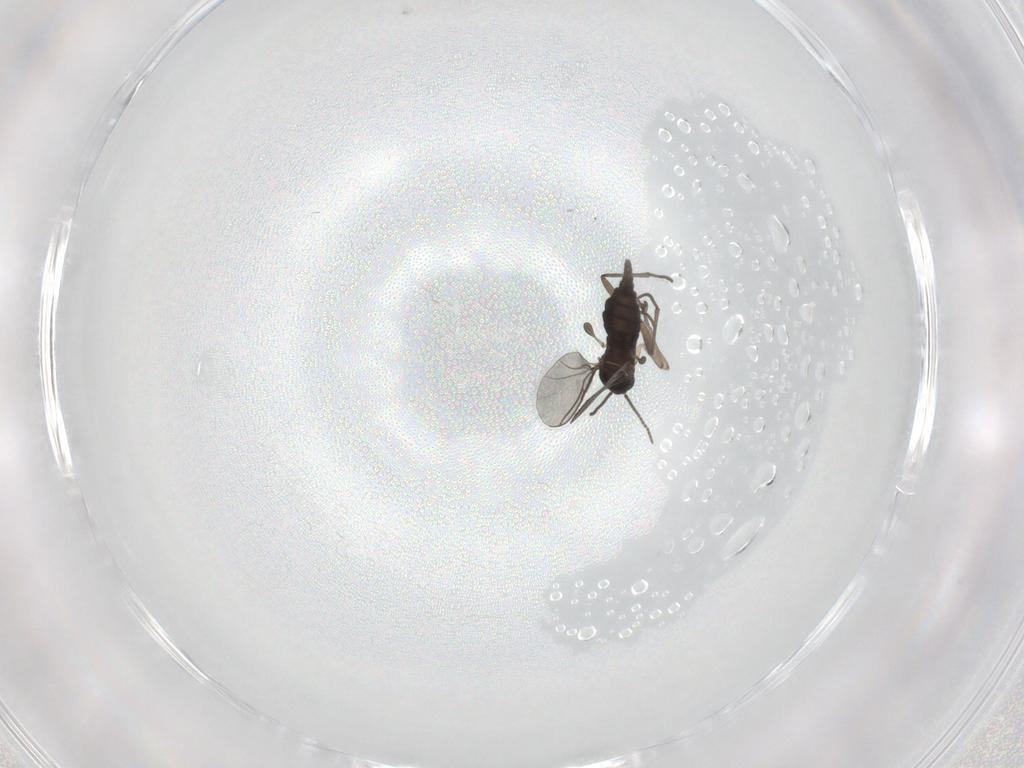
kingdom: Animalia
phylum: Arthropoda
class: Insecta
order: Diptera
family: Sciaridae
